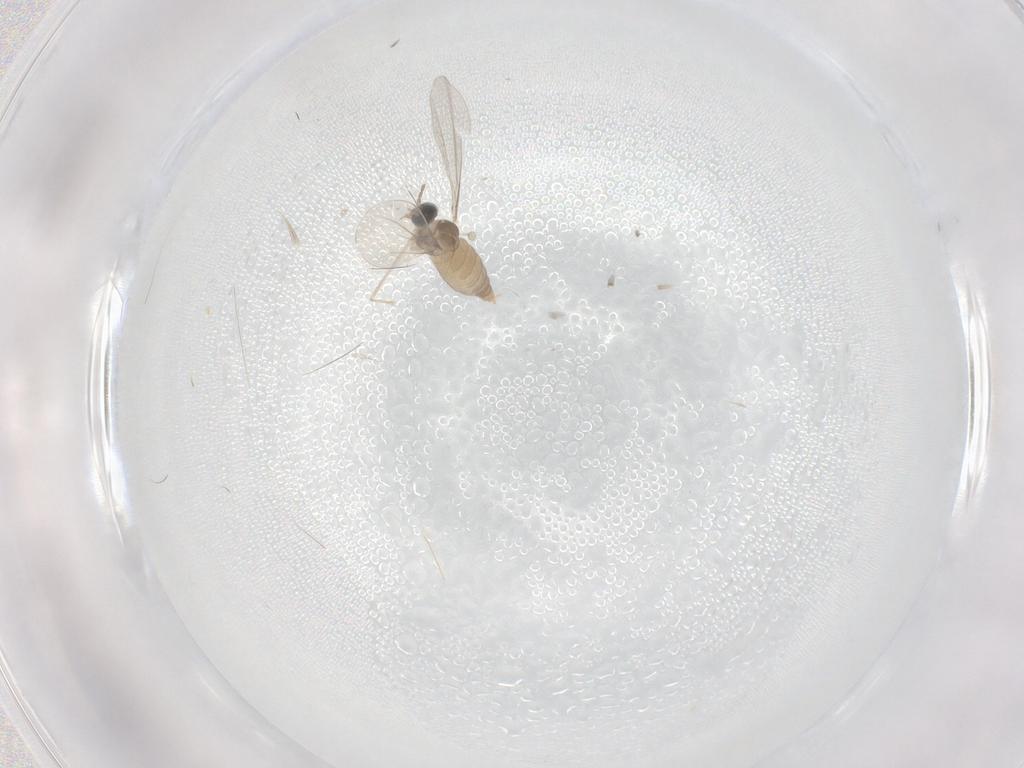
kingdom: Animalia
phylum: Arthropoda
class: Insecta
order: Diptera
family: Cecidomyiidae
